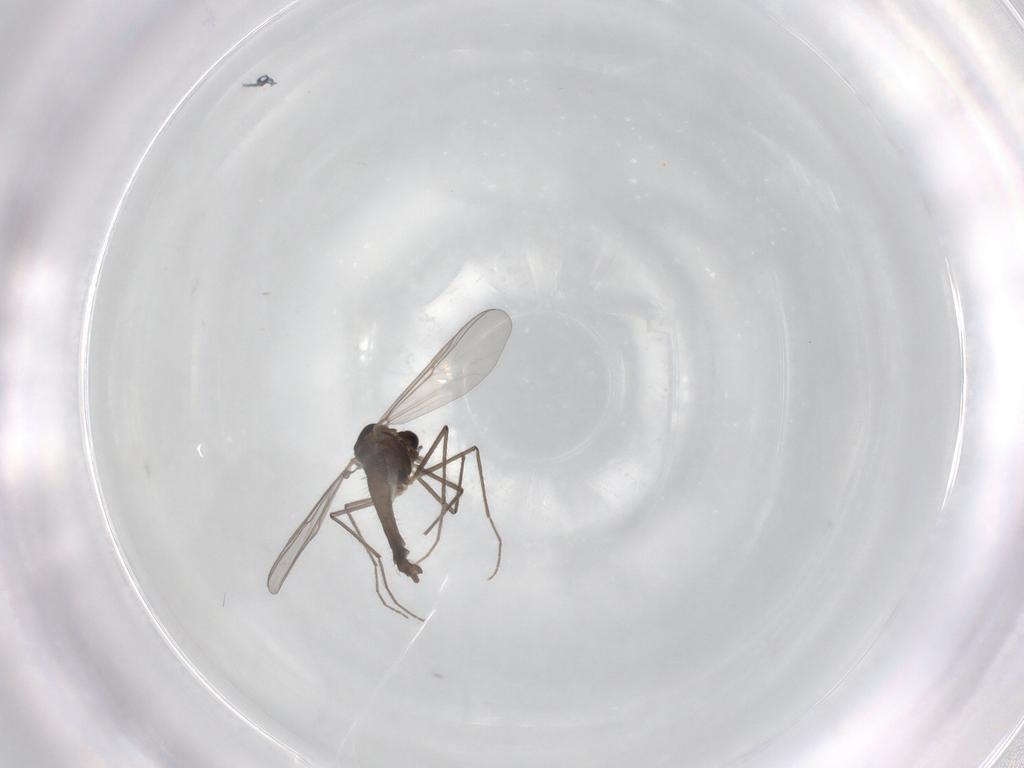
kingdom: Animalia
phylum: Arthropoda
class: Insecta
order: Diptera
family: Chironomidae
